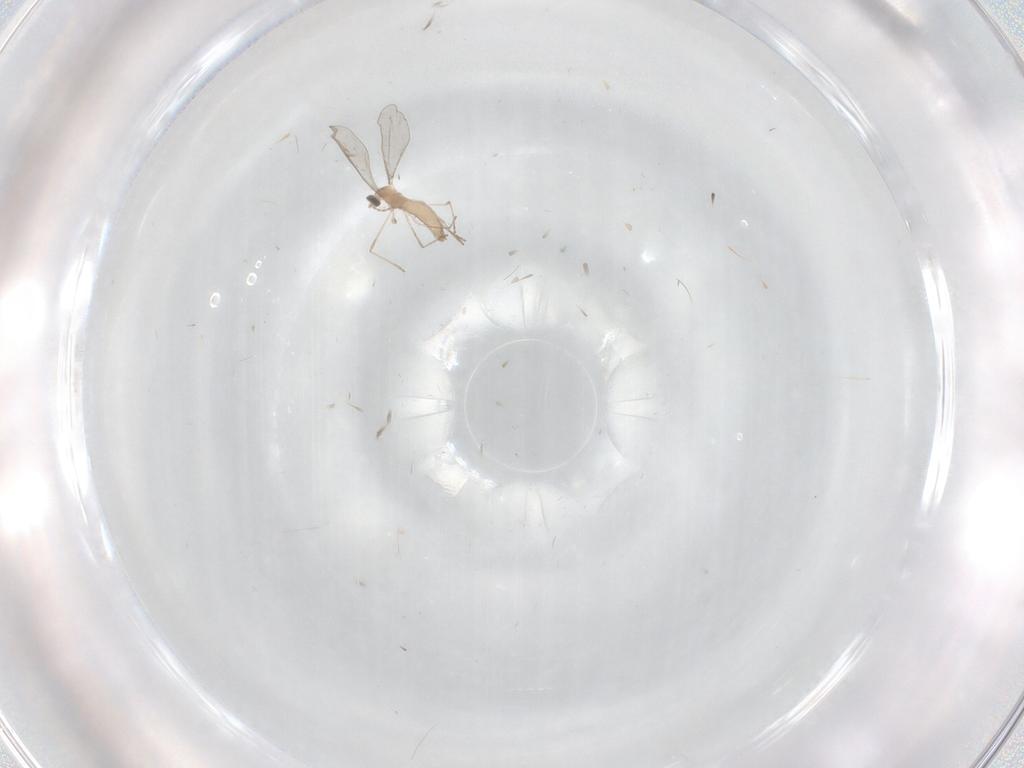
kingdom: Animalia
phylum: Arthropoda
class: Insecta
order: Diptera
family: Cecidomyiidae
